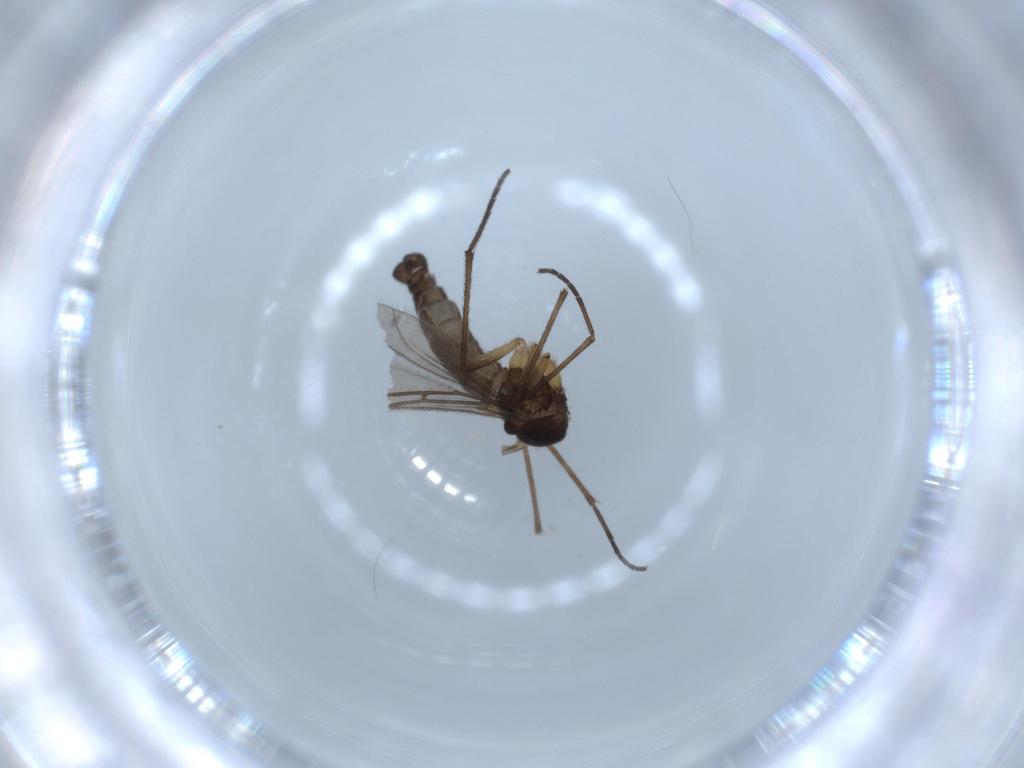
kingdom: Animalia
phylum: Arthropoda
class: Insecta
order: Diptera
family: Sciaridae
